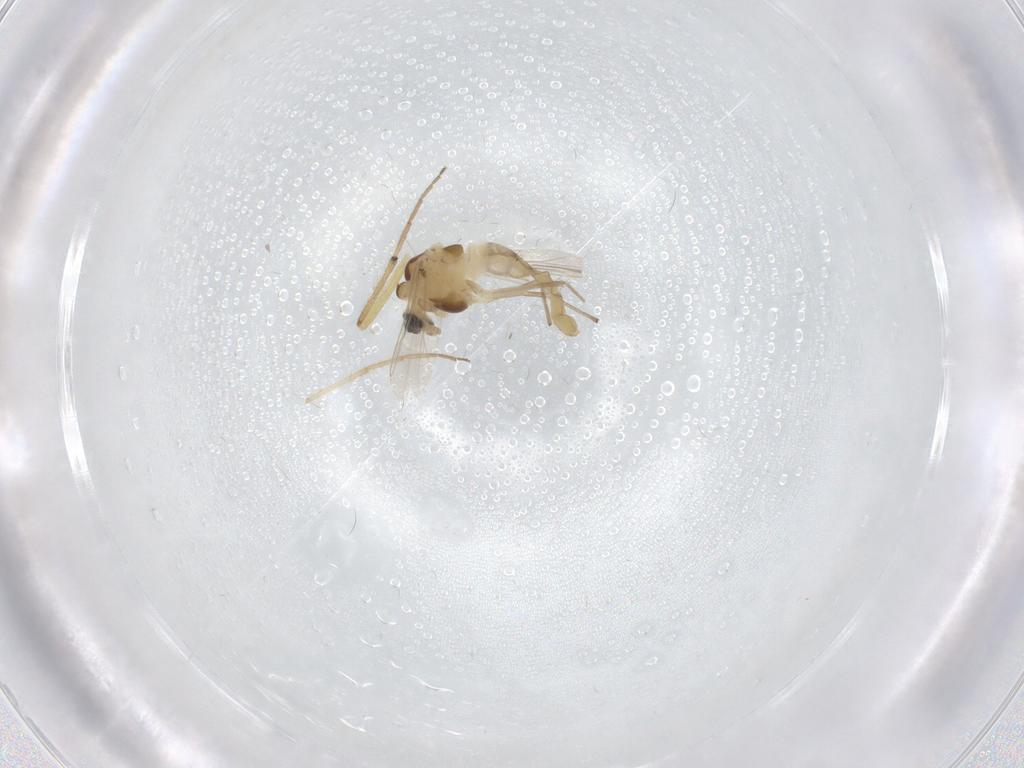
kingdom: Animalia
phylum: Arthropoda
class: Insecta
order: Diptera
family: Chironomidae
